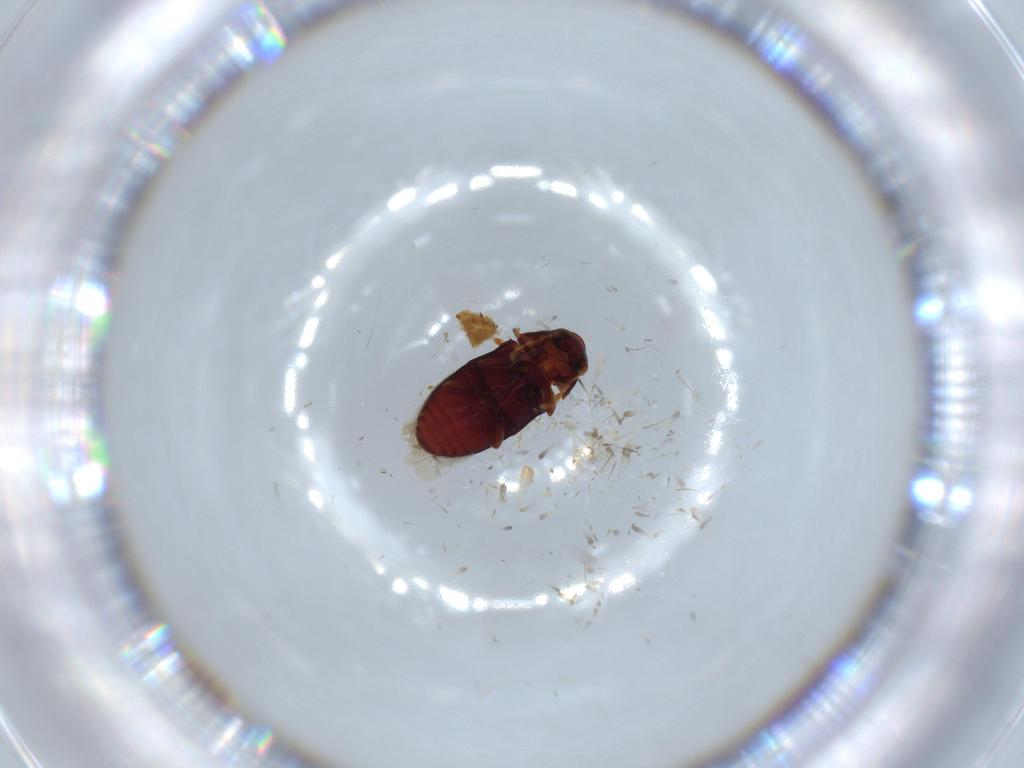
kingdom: Animalia
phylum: Arthropoda
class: Insecta
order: Coleoptera
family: Ptinidae
